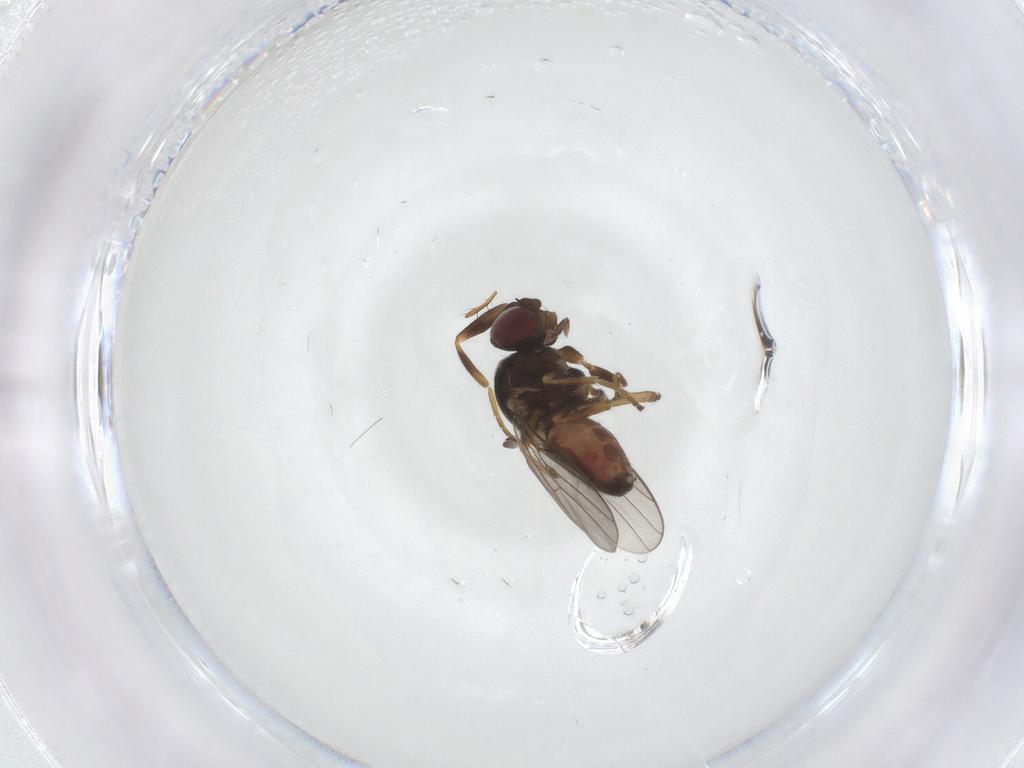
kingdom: Animalia
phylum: Arthropoda
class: Insecta
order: Diptera
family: Chloropidae
